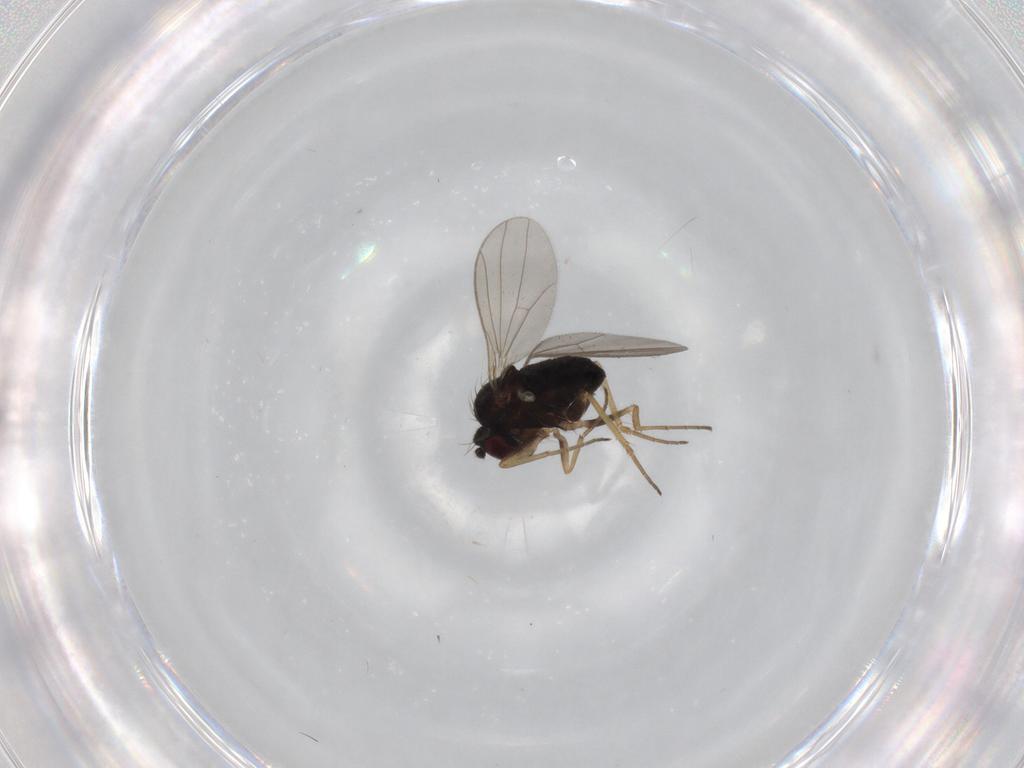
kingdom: Animalia
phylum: Arthropoda
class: Insecta
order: Diptera
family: Dolichopodidae
